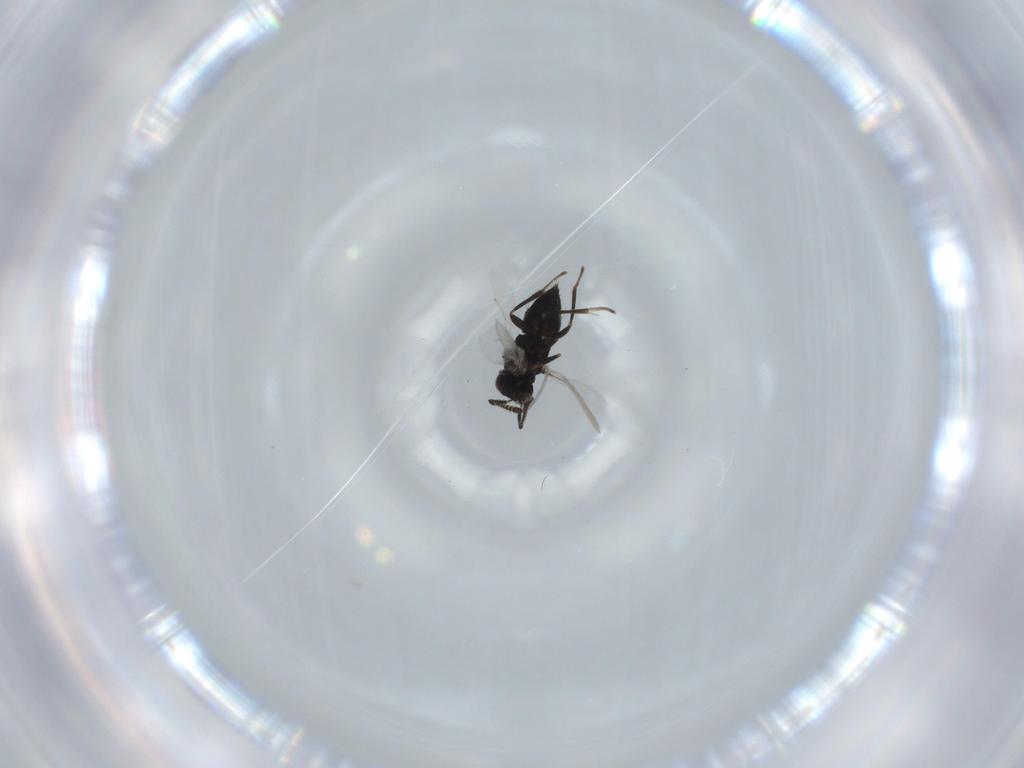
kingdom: Animalia
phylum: Arthropoda
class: Insecta
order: Diptera
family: Chironomidae
